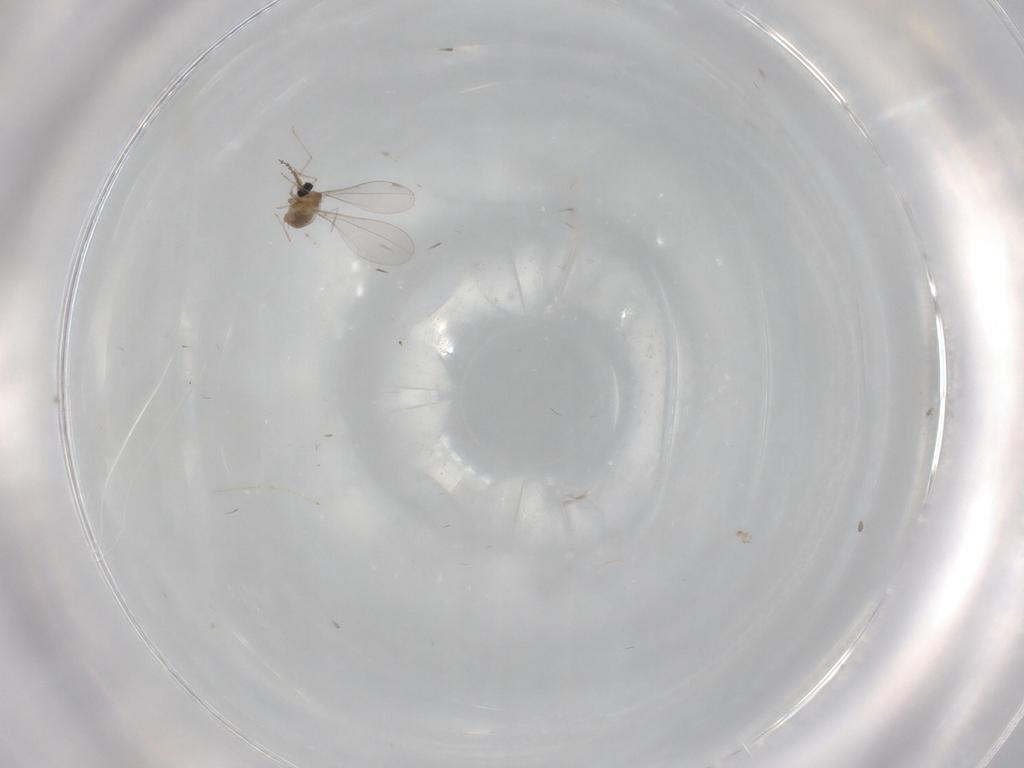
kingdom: Animalia
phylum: Arthropoda
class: Insecta
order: Diptera
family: Cecidomyiidae
